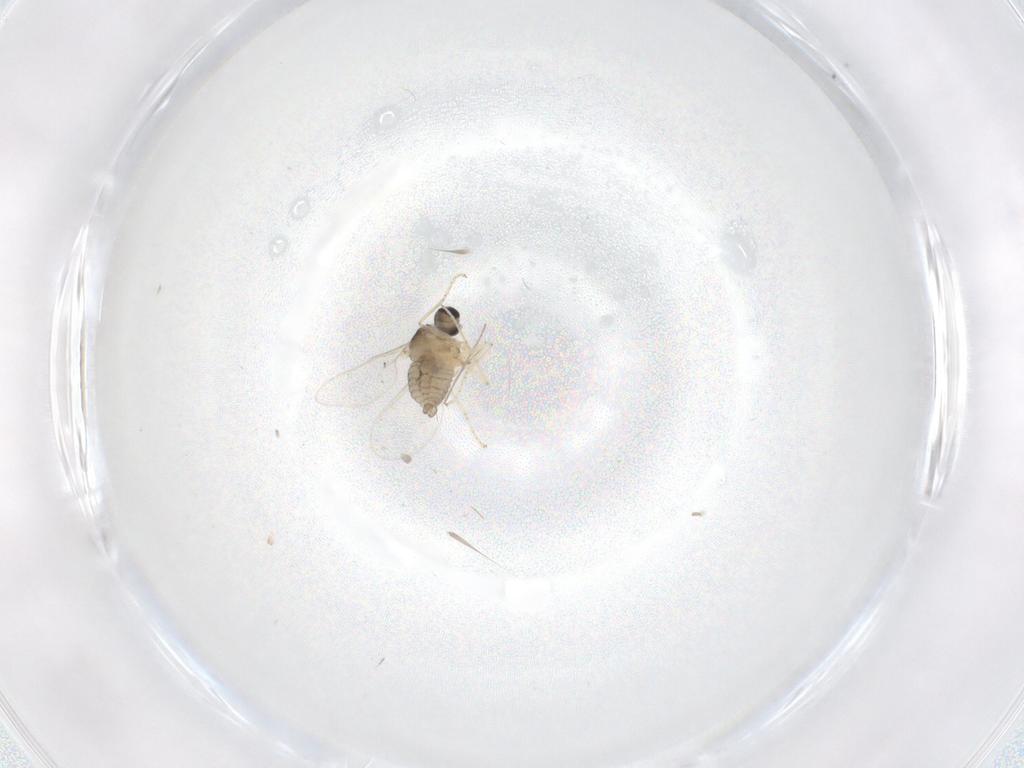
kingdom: Animalia
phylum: Arthropoda
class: Insecta
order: Diptera
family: Cecidomyiidae
